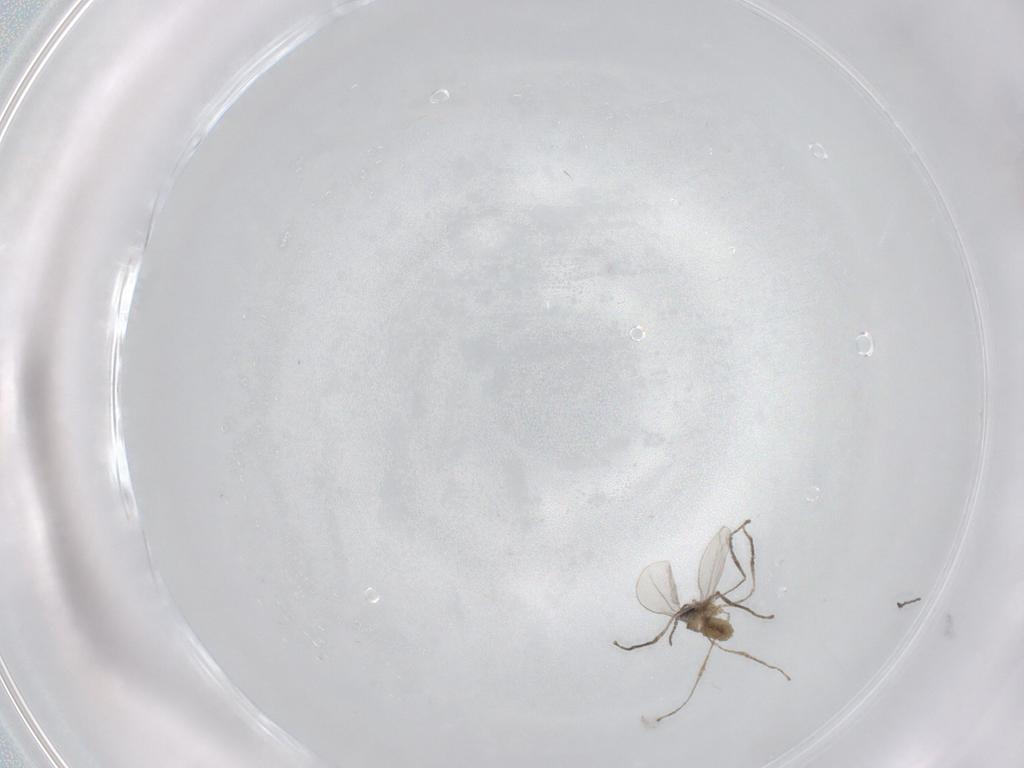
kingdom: Animalia
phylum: Arthropoda
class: Insecta
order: Diptera
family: Cecidomyiidae
